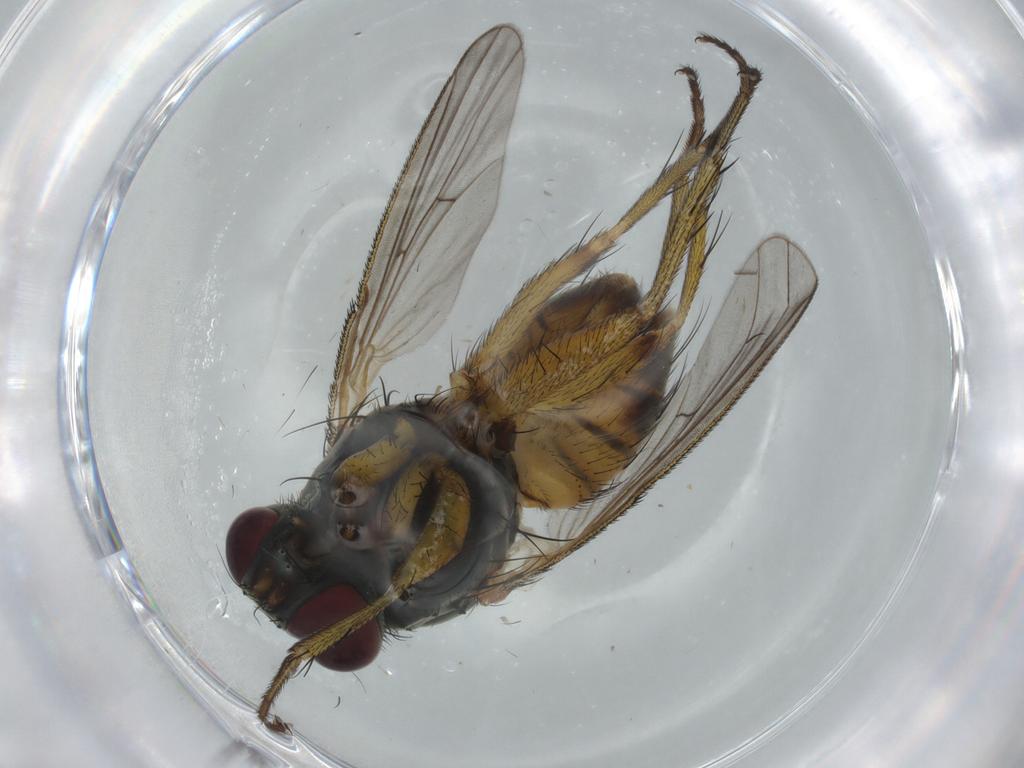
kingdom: Animalia
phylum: Arthropoda
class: Insecta
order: Diptera
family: Muscidae
